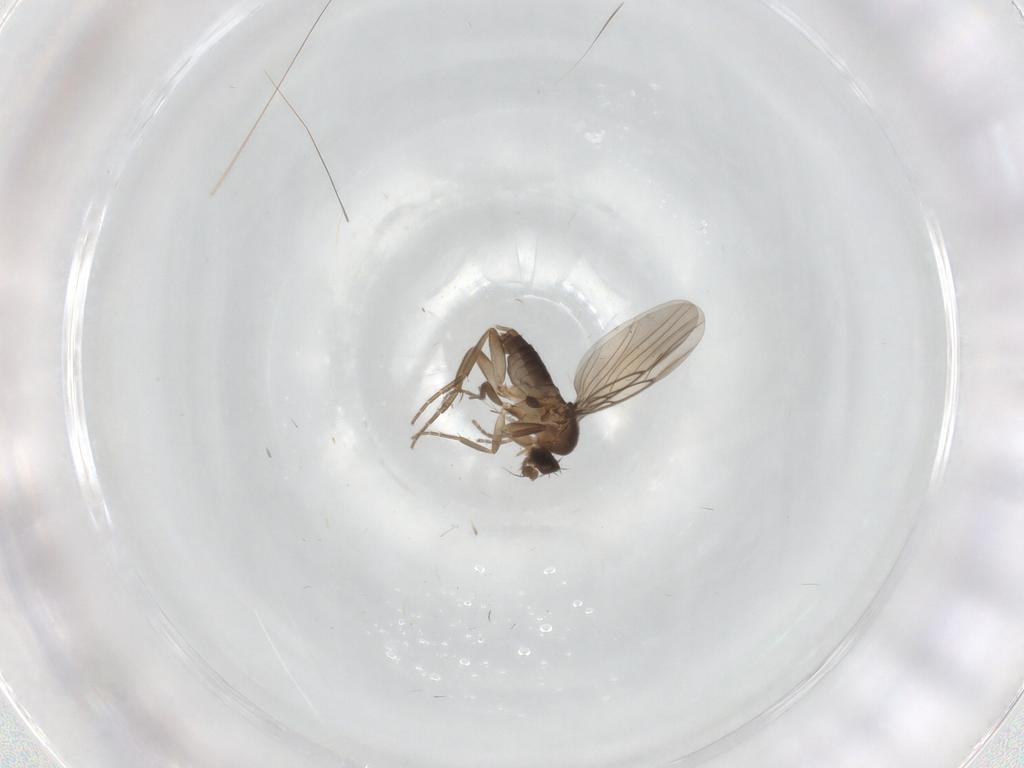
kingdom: Animalia
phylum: Arthropoda
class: Insecta
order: Diptera
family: Phoridae
